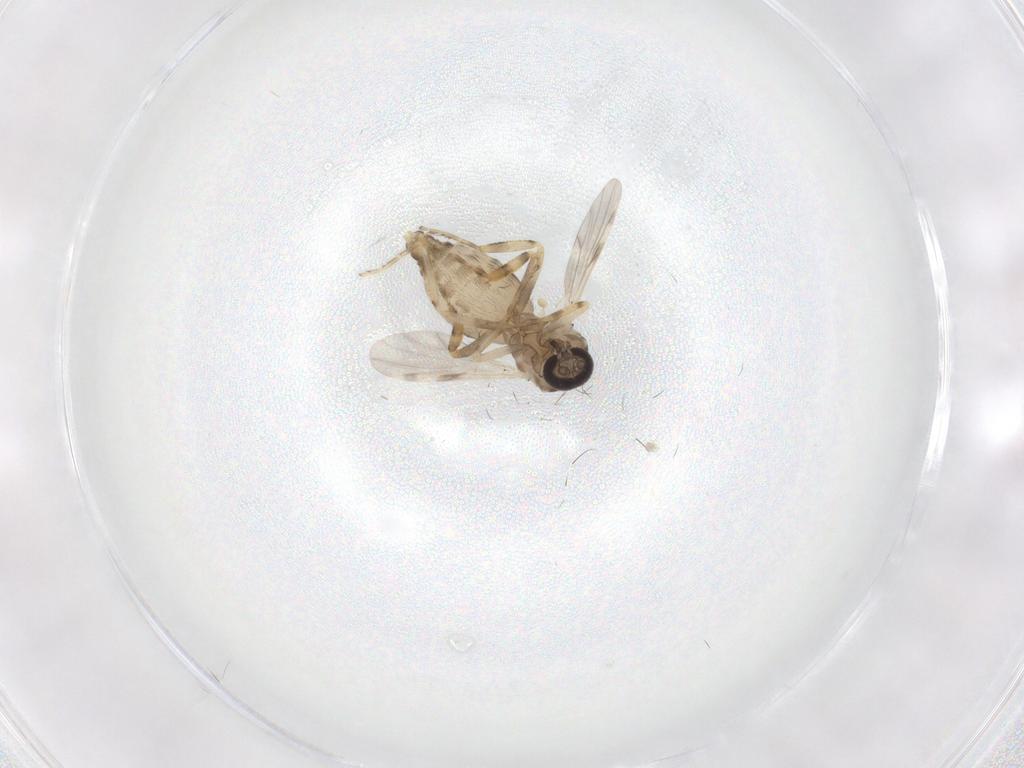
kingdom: Animalia
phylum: Arthropoda
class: Insecta
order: Diptera
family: Ceratopogonidae
